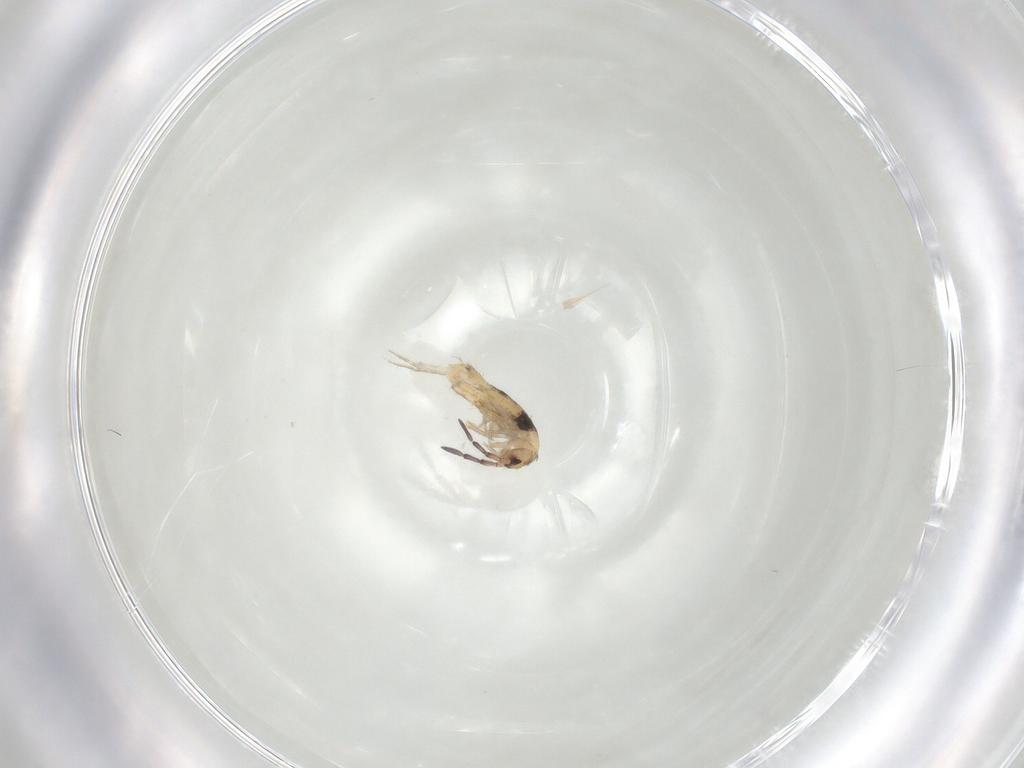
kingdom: Animalia
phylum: Arthropoda
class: Collembola
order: Entomobryomorpha
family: Entomobryidae
